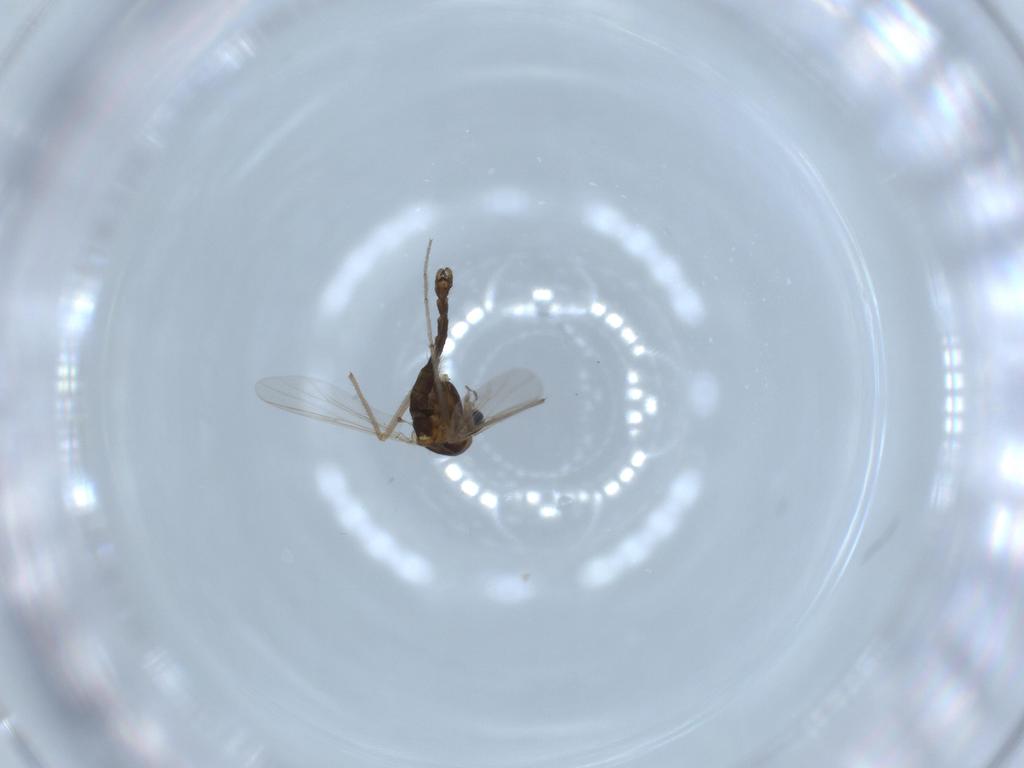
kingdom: Animalia
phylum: Arthropoda
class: Insecta
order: Diptera
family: Chironomidae
